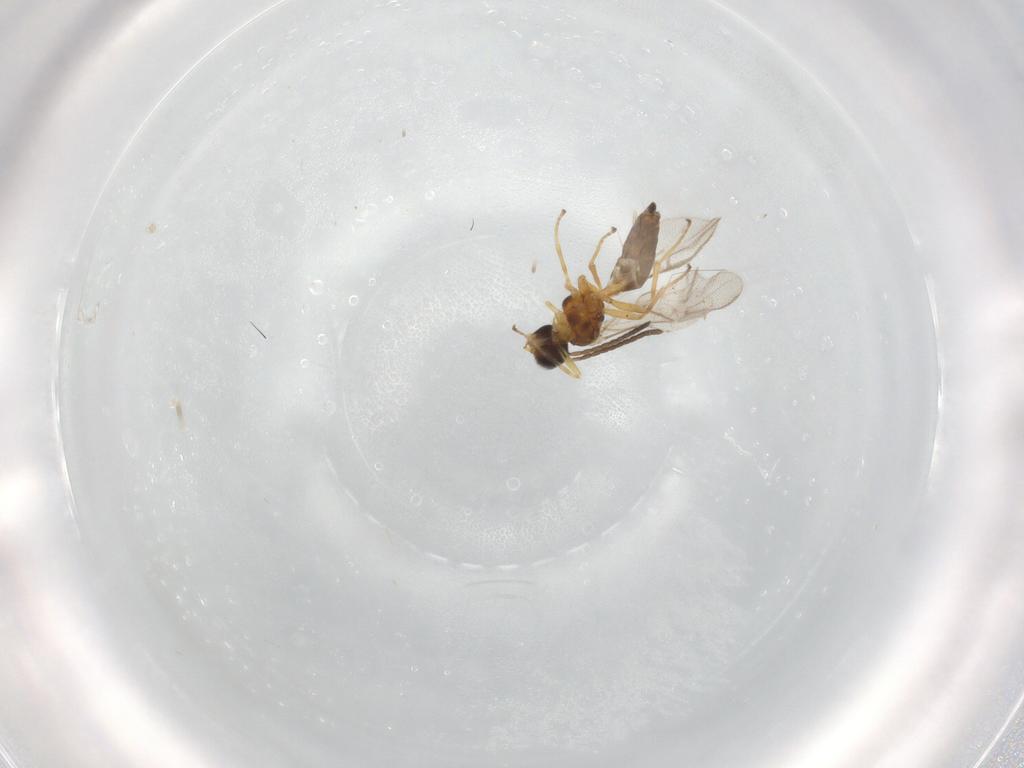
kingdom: Animalia
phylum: Arthropoda
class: Insecta
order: Hymenoptera
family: Braconidae
